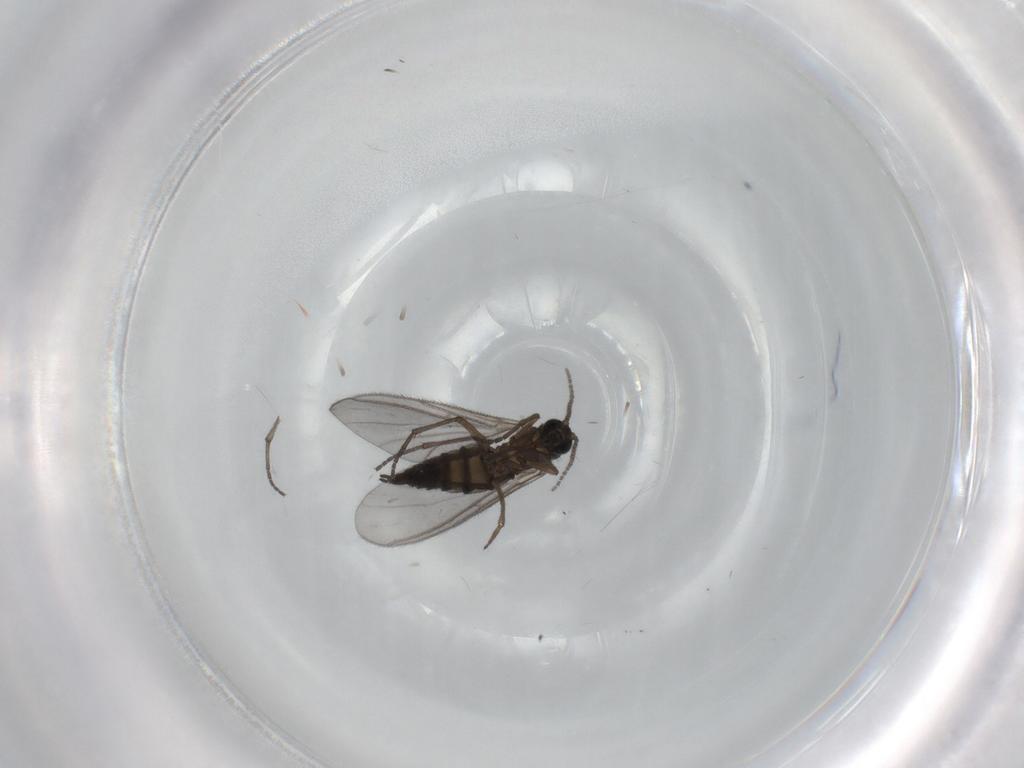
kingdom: Animalia
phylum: Arthropoda
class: Insecta
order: Diptera
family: Sciaridae
